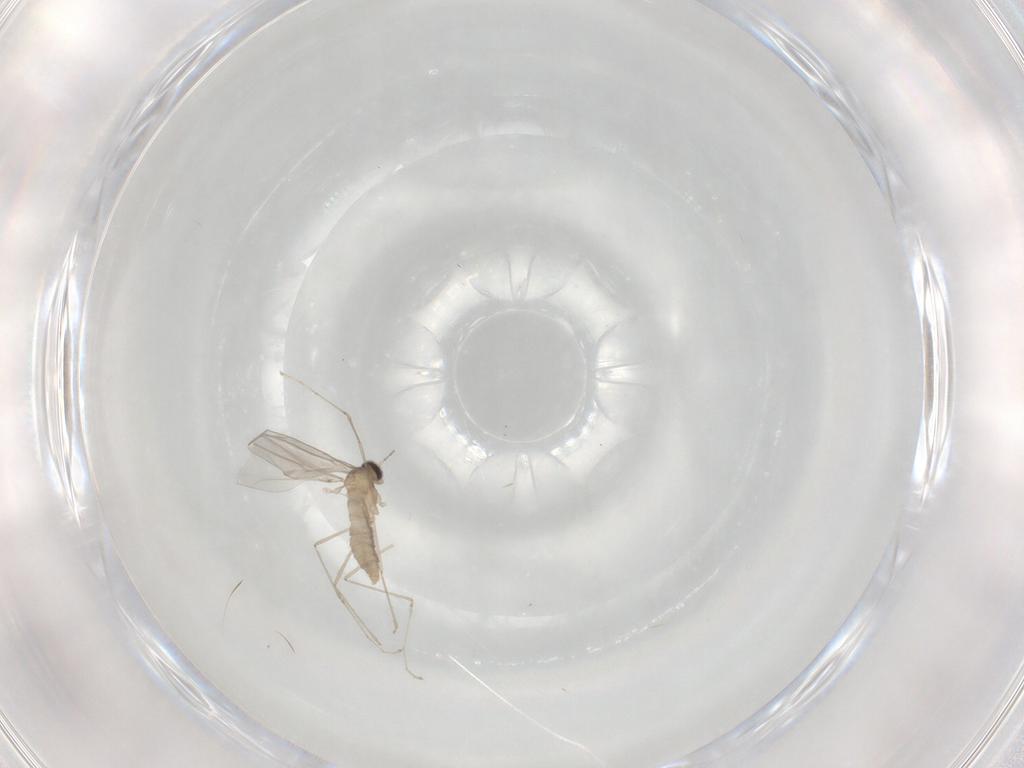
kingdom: Animalia
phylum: Arthropoda
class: Insecta
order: Diptera
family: Cecidomyiidae
